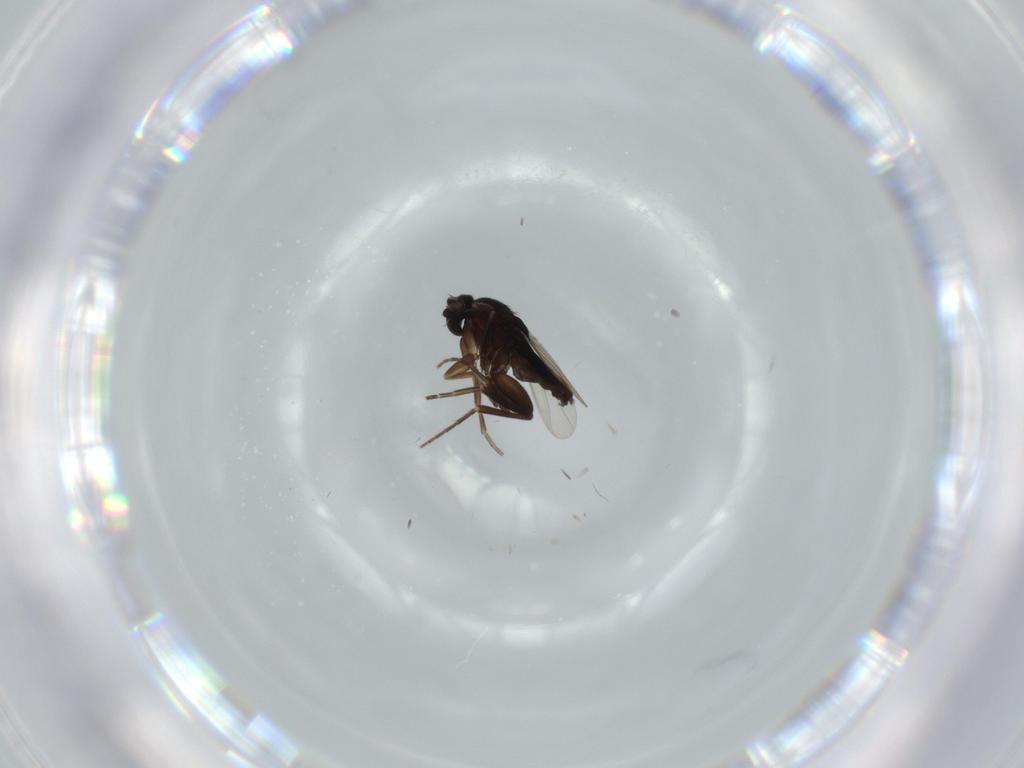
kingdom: Animalia
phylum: Arthropoda
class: Insecta
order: Diptera
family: Phoridae
